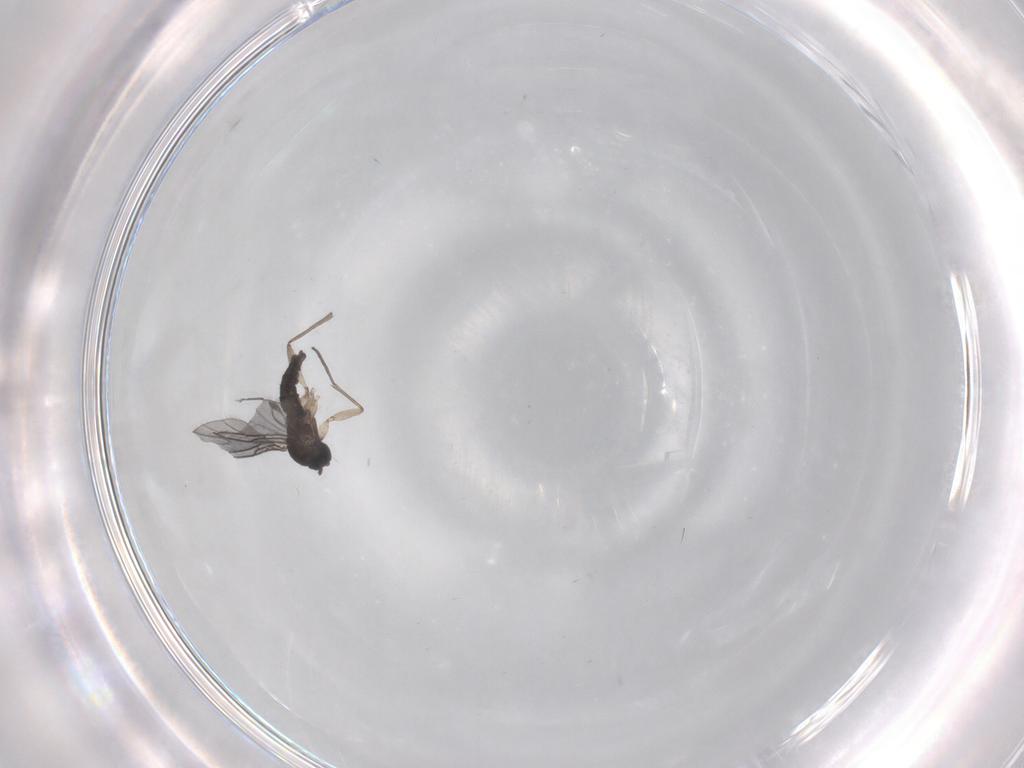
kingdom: Animalia
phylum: Arthropoda
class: Insecta
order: Diptera
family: Sciaridae
